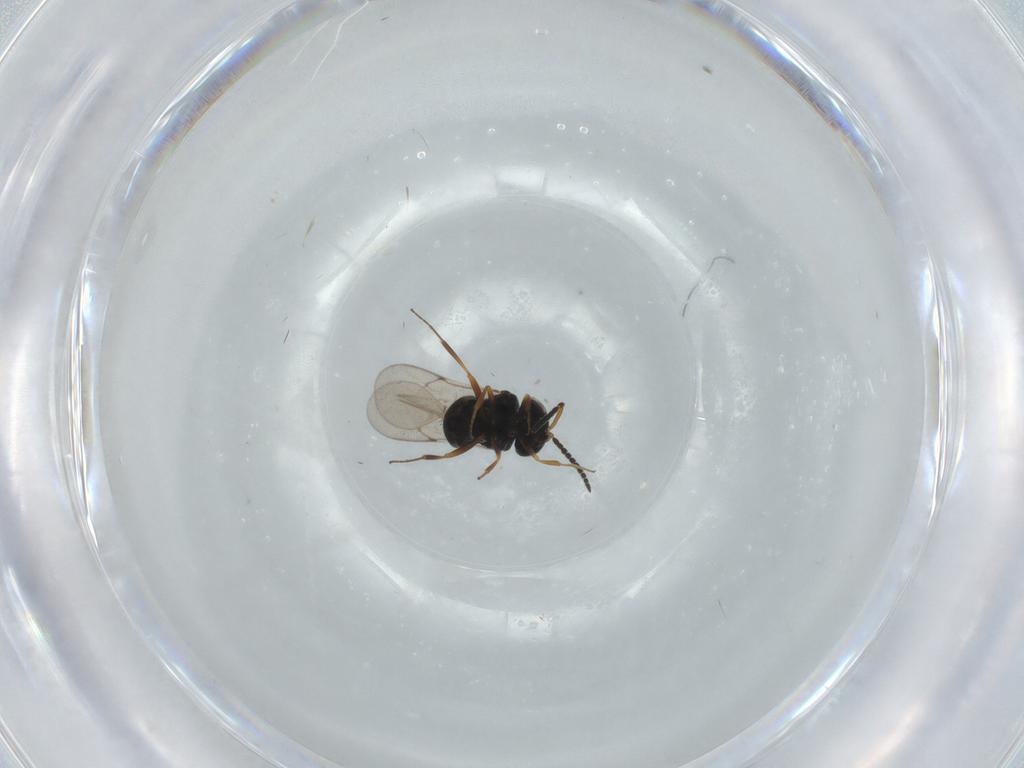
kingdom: Animalia
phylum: Arthropoda
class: Insecta
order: Hymenoptera
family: Scelionidae
